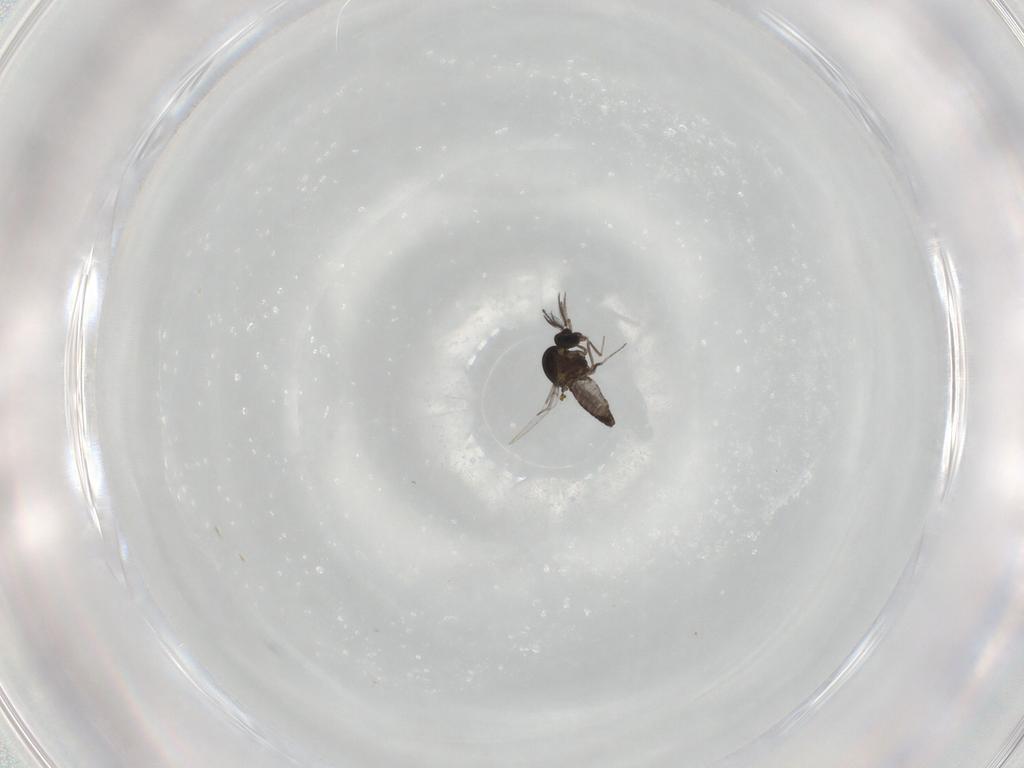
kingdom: Animalia
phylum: Arthropoda
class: Insecta
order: Diptera
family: Ceratopogonidae
